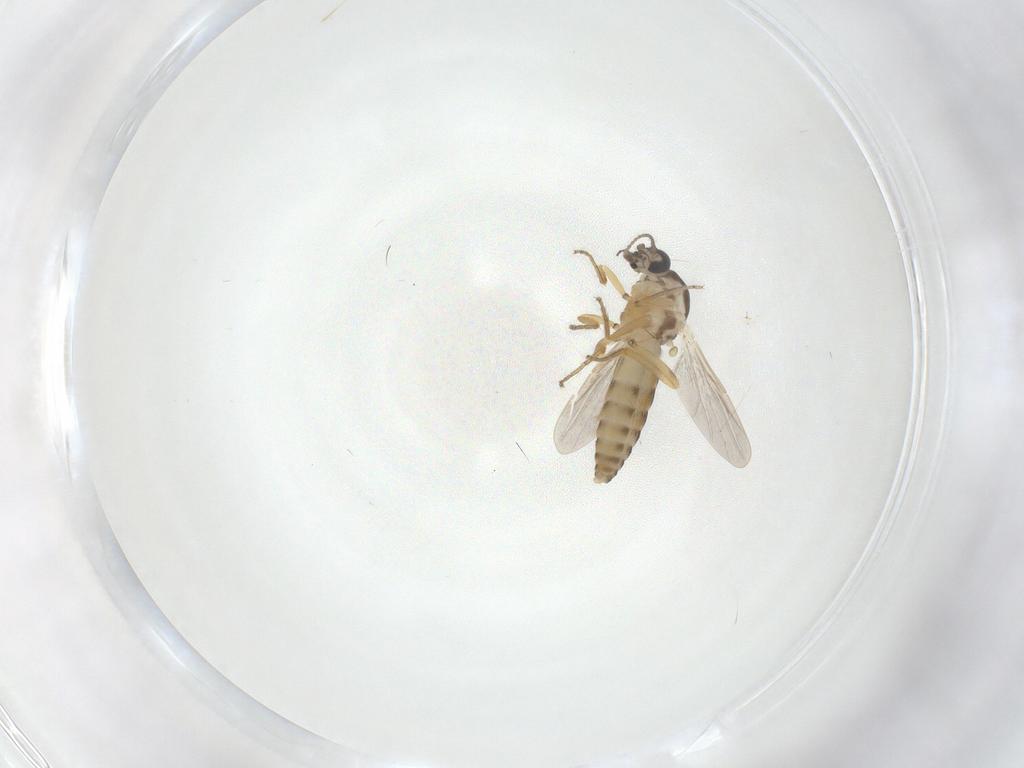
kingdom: Animalia
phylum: Arthropoda
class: Insecta
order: Diptera
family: Ceratopogonidae
